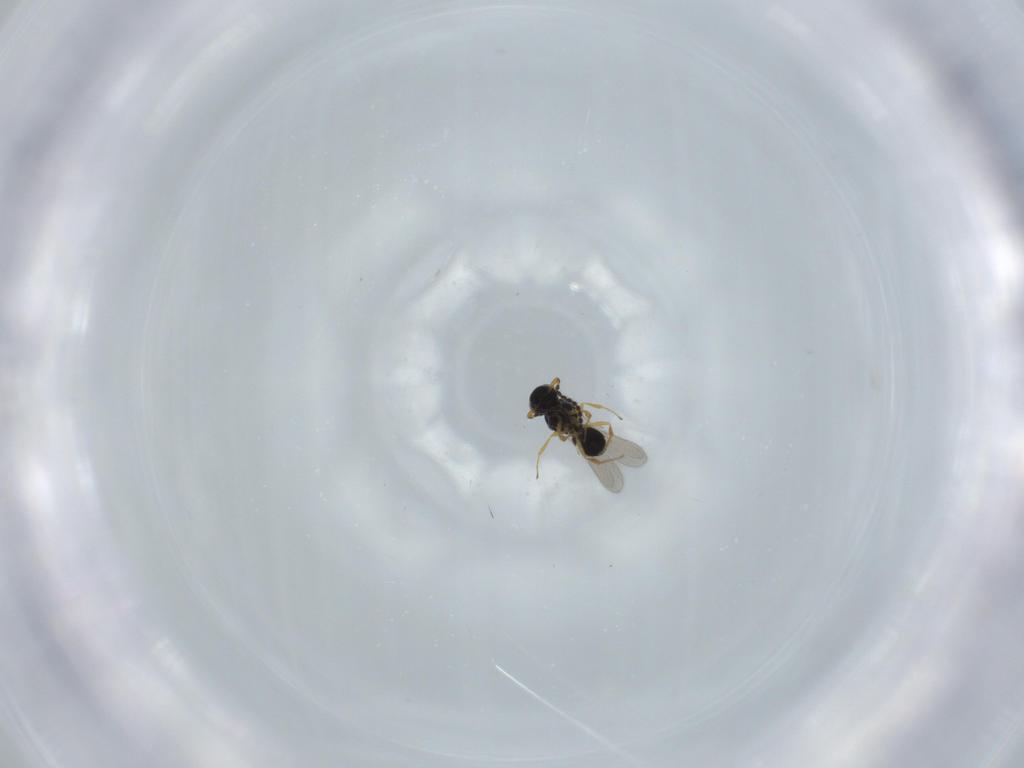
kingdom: Animalia
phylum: Arthropoda
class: Insecta
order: Hymenoptera
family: Scelionidae
